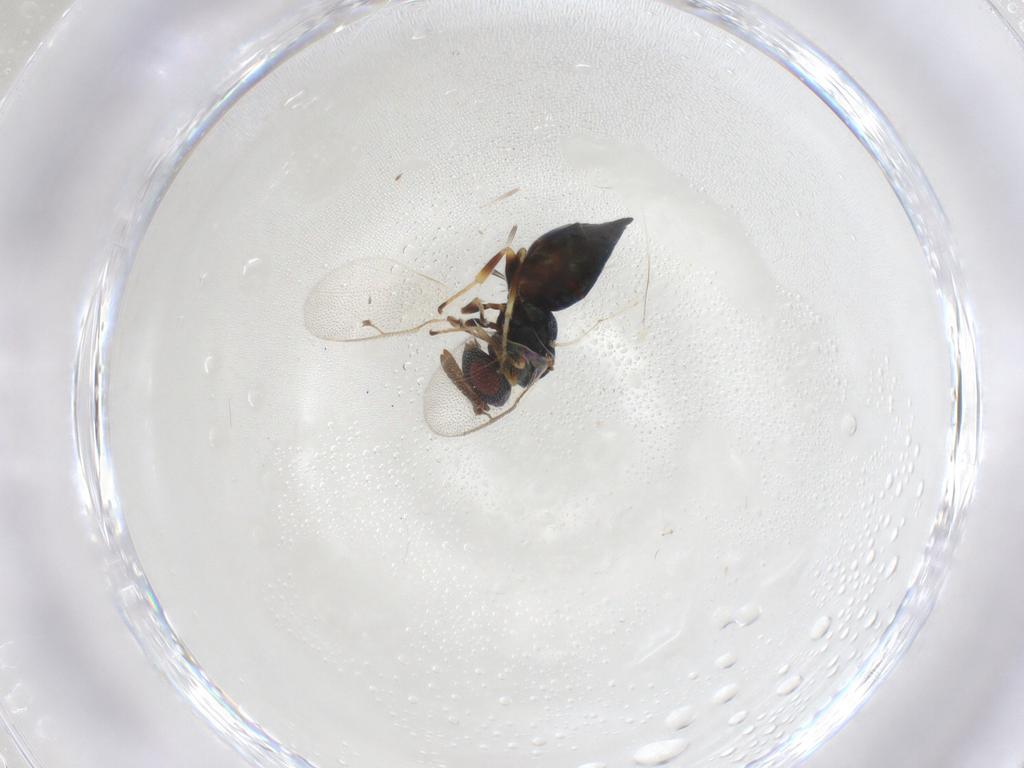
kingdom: Animalia
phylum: Arthropoda
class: Insecta
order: Hymenoptera
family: Pteromalidae
